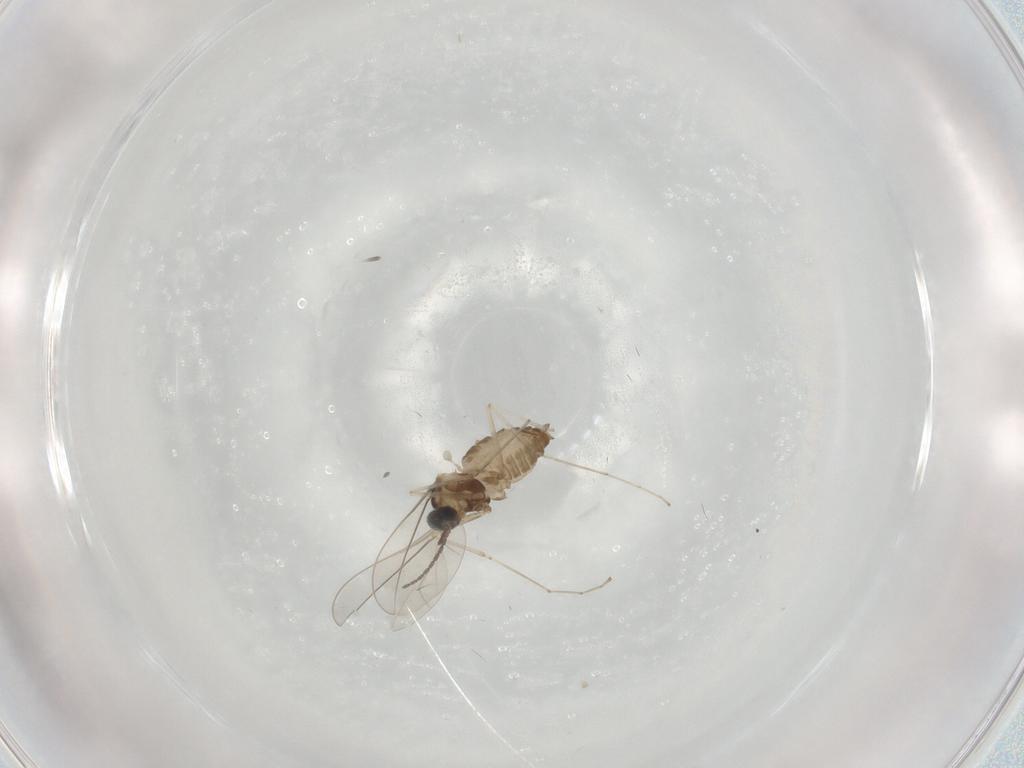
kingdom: Animalia
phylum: Arthropoda
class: Insecta
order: Diptera
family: Cecidomyiidae
